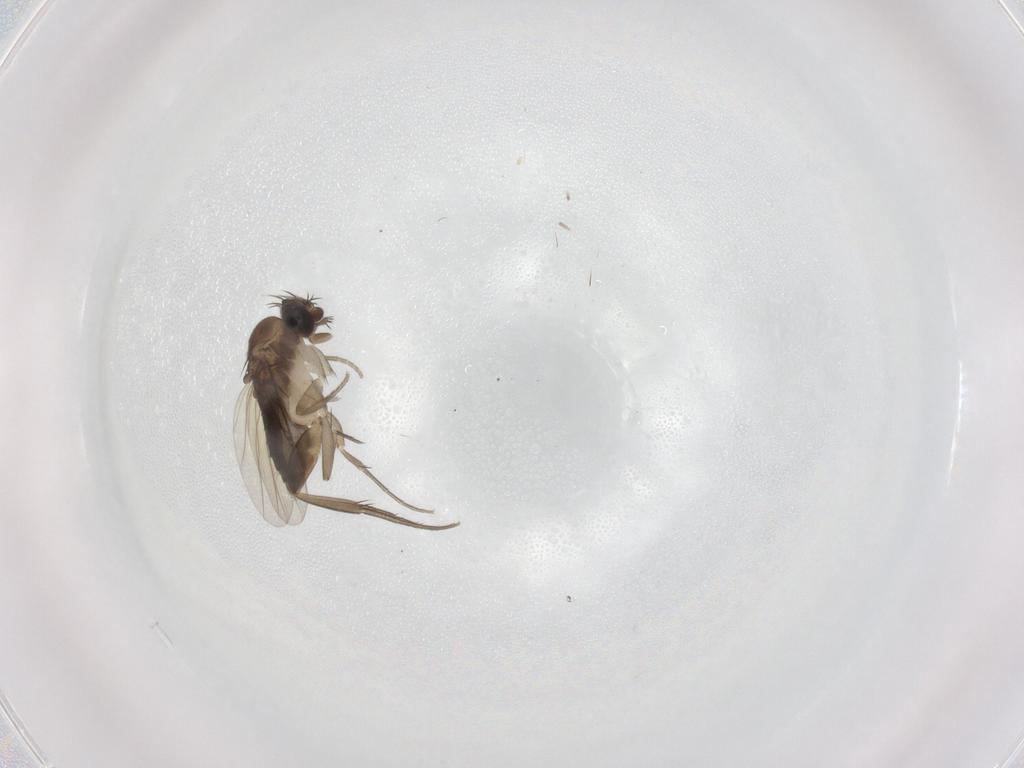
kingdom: Animalia
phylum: Arthropoda
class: Insecta
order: Diptera
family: Phoridae
